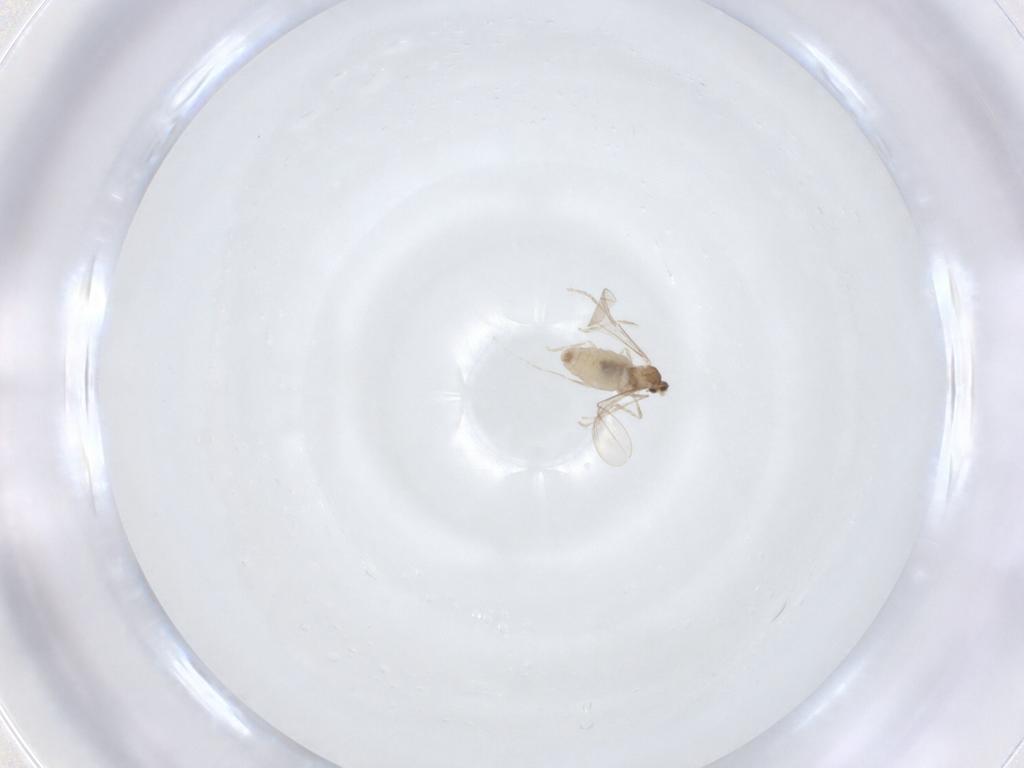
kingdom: Animalia
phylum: Arthropoda
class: Insecta
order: Diptera
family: Cecidomyiidae
